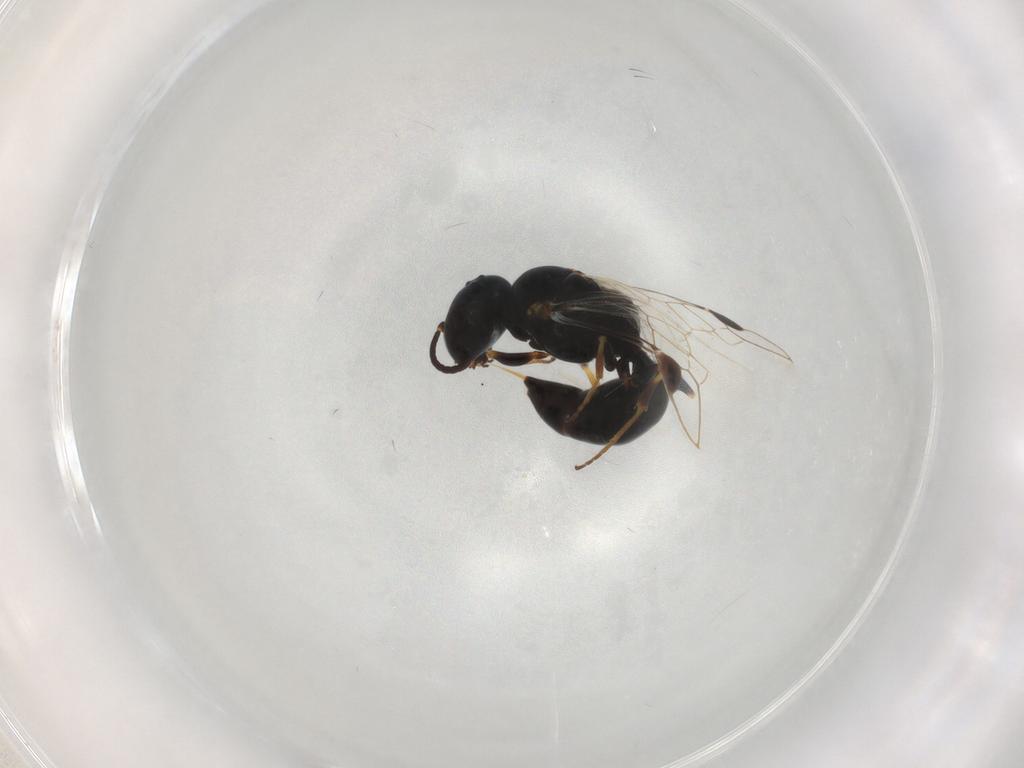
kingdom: Animalia
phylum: Arthropoda
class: Insecta
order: Hymenoptera
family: Crabronidae
